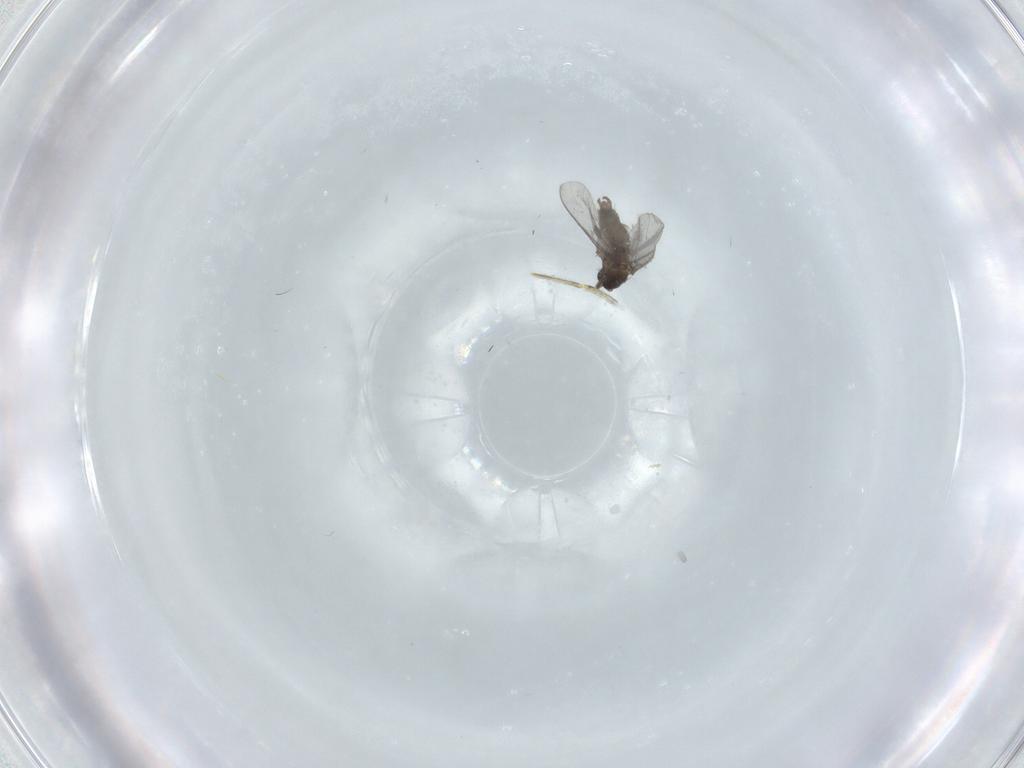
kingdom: Animalia
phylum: Arthropoda
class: Insecta
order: Diptera
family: Sciaridae
